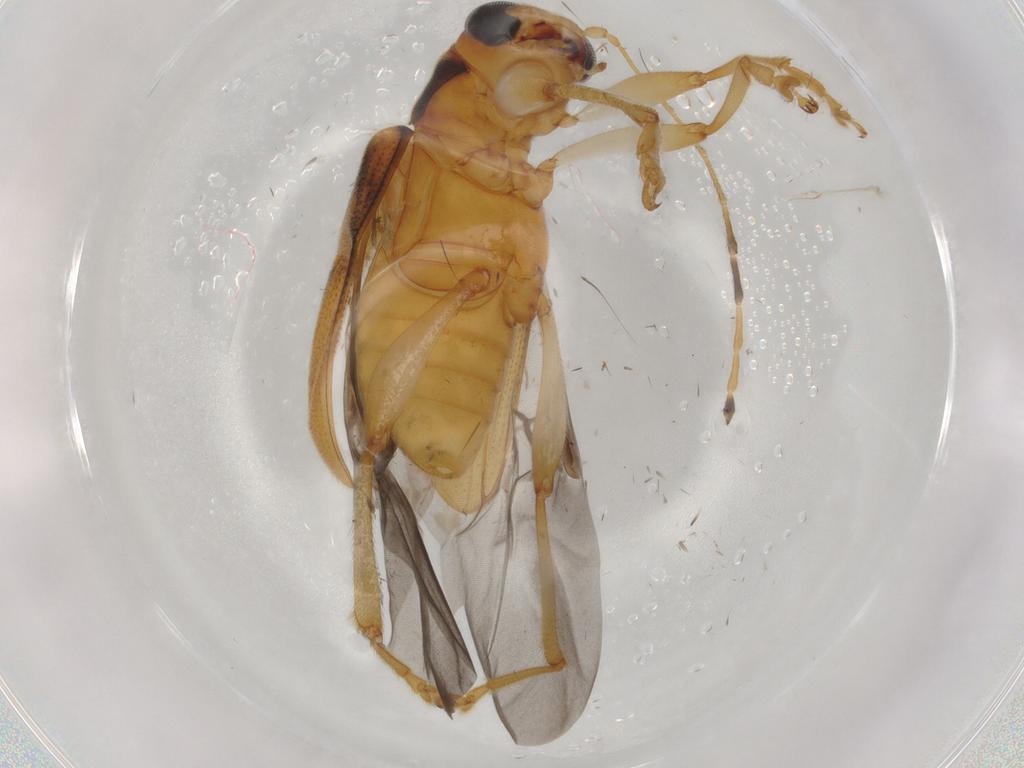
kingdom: Animalia
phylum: Arthropoda
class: Insecta
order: Coleoptera
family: Chrysomelidae
